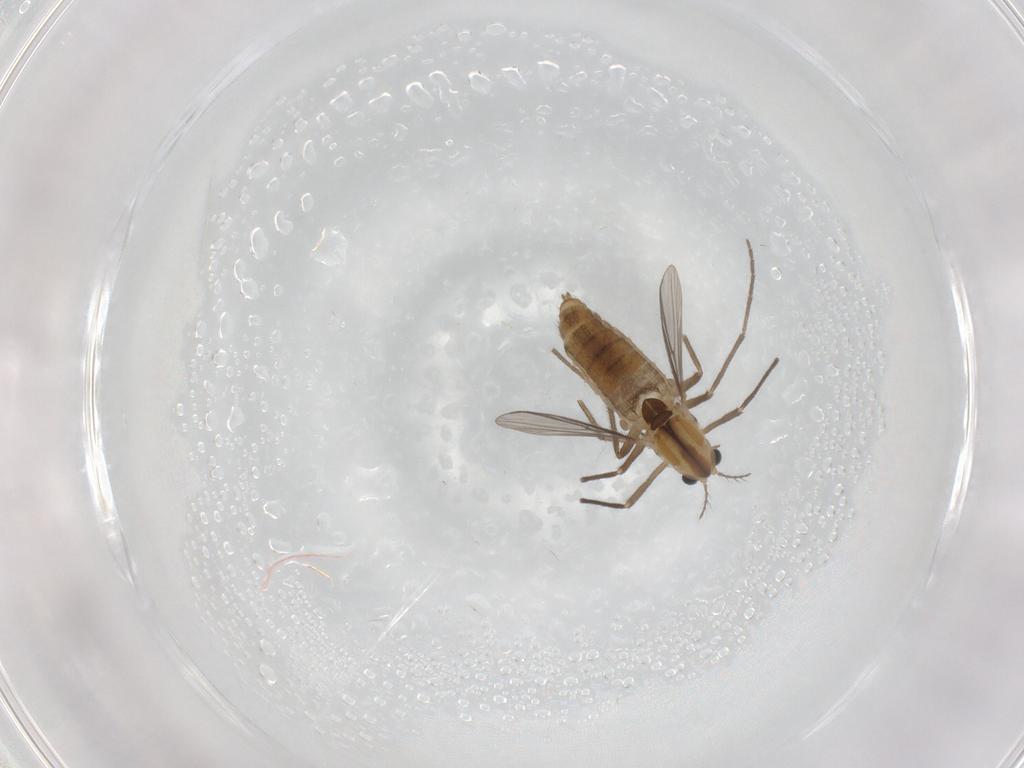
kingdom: Animalia
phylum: Arthropoda
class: Insecta
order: Diptera
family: Chironomidae
